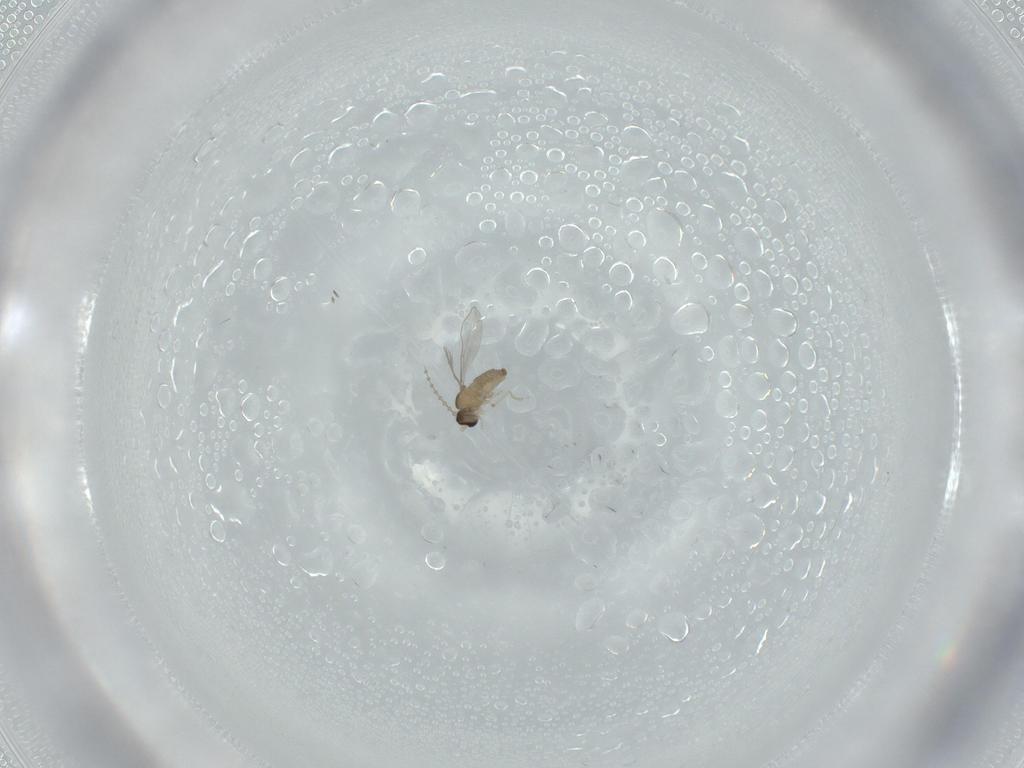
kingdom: Animalia
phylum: Arthropoda
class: Insecta
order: Diptera
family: Cecidomyiidae
